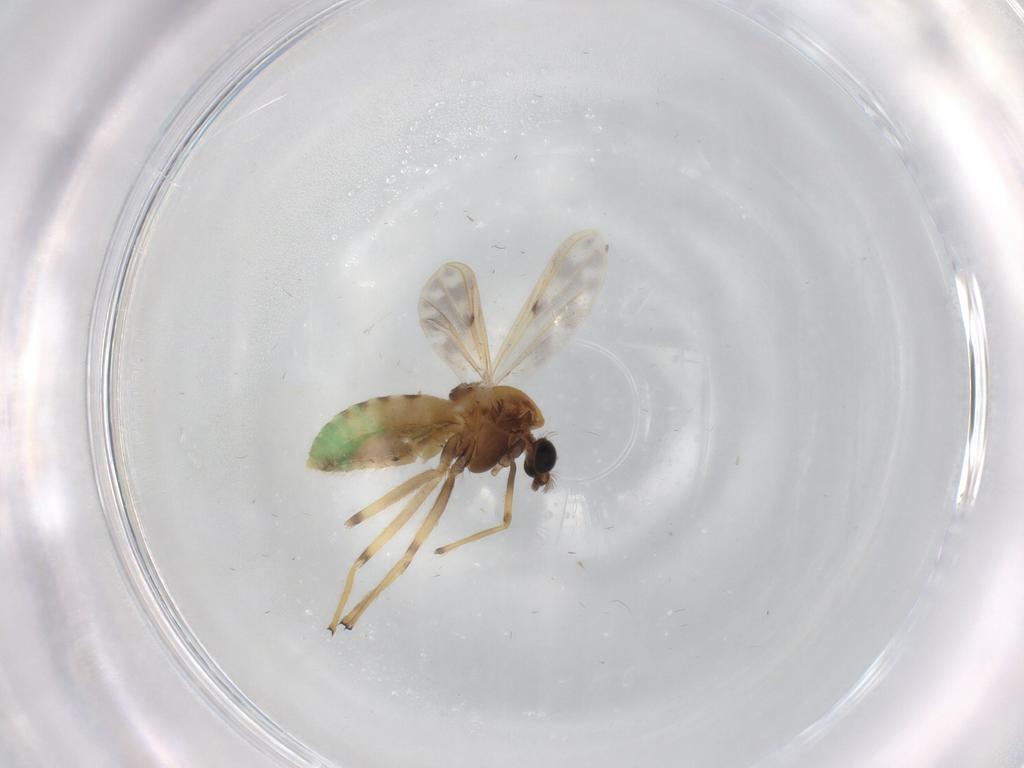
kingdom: Animalia
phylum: Arthropoda
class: Insecta
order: Diptera
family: Chironomidae
